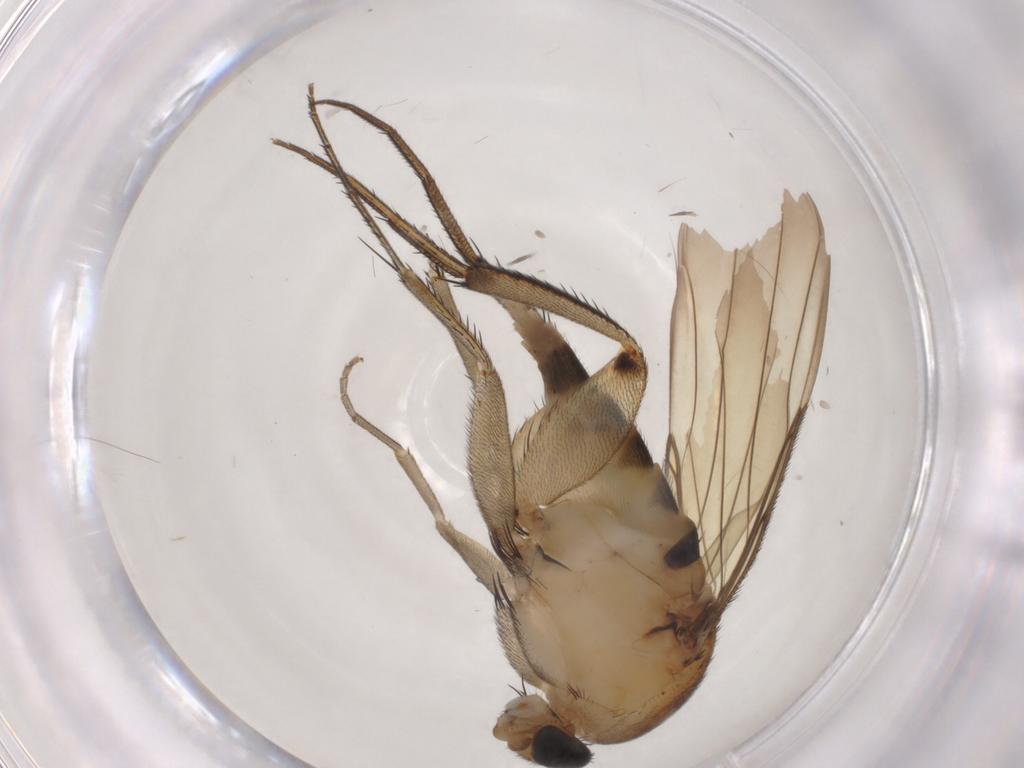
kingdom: Animalia
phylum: Arthropoda
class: Insecta
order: Diptera
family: Phoridae
